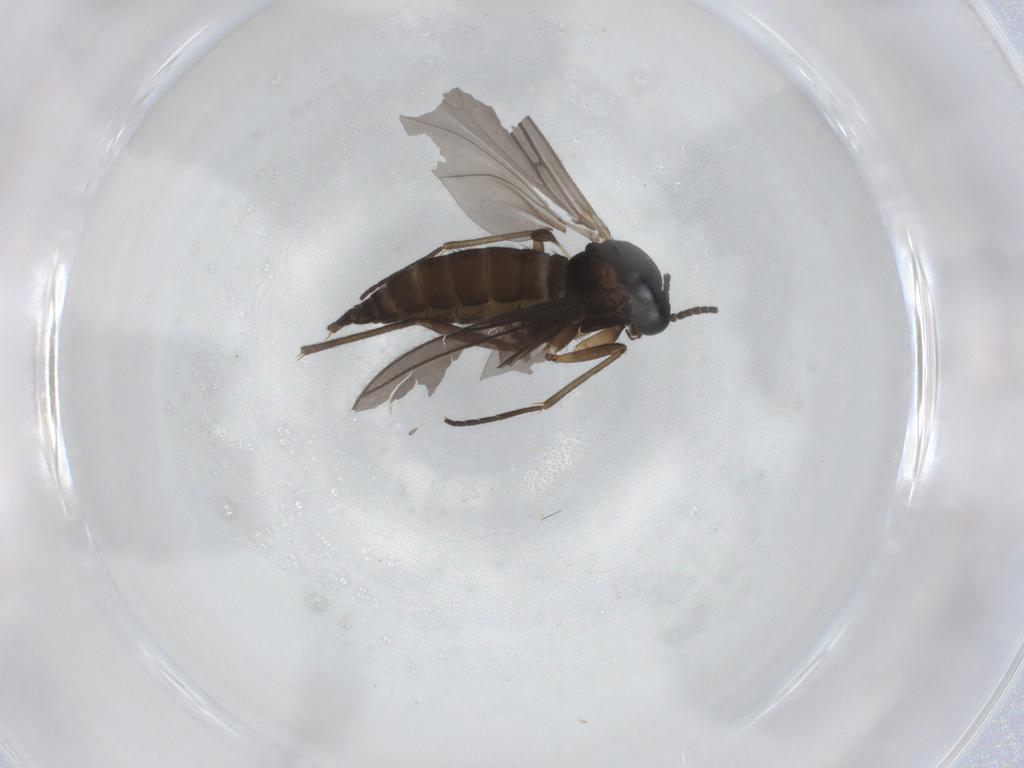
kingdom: Animalia
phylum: Arthropoda
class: Insecta
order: Diptera
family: Sciaridae
